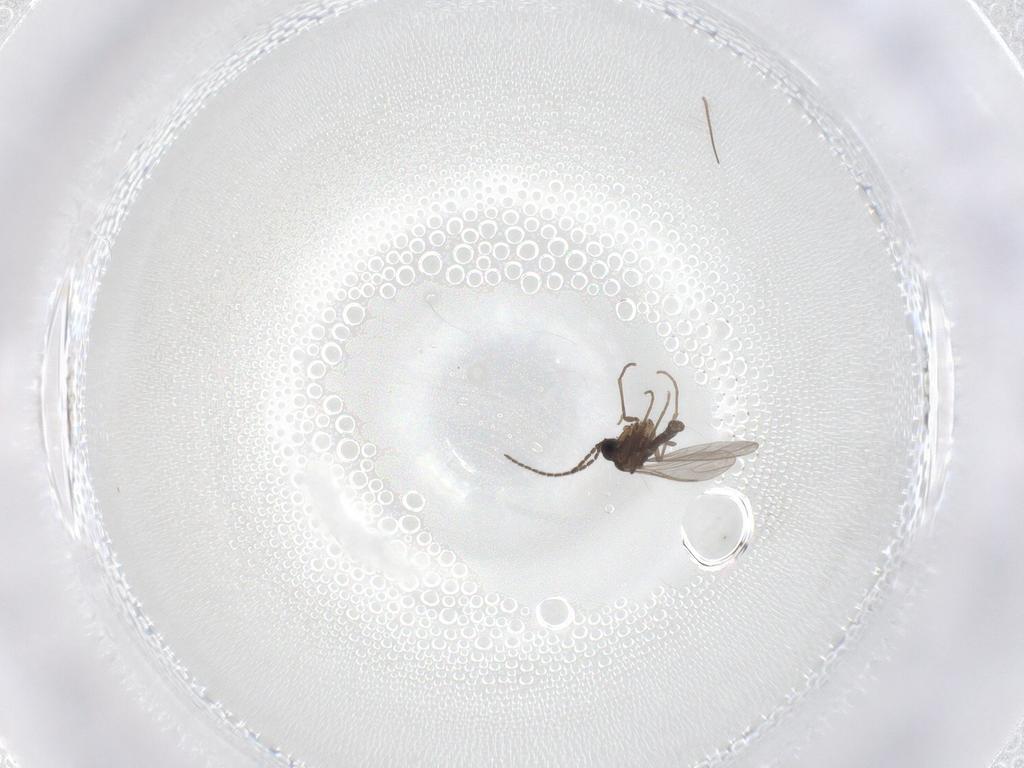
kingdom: Animalia
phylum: Arthropoda
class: Insecta
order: Diptera
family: Sciaridae
